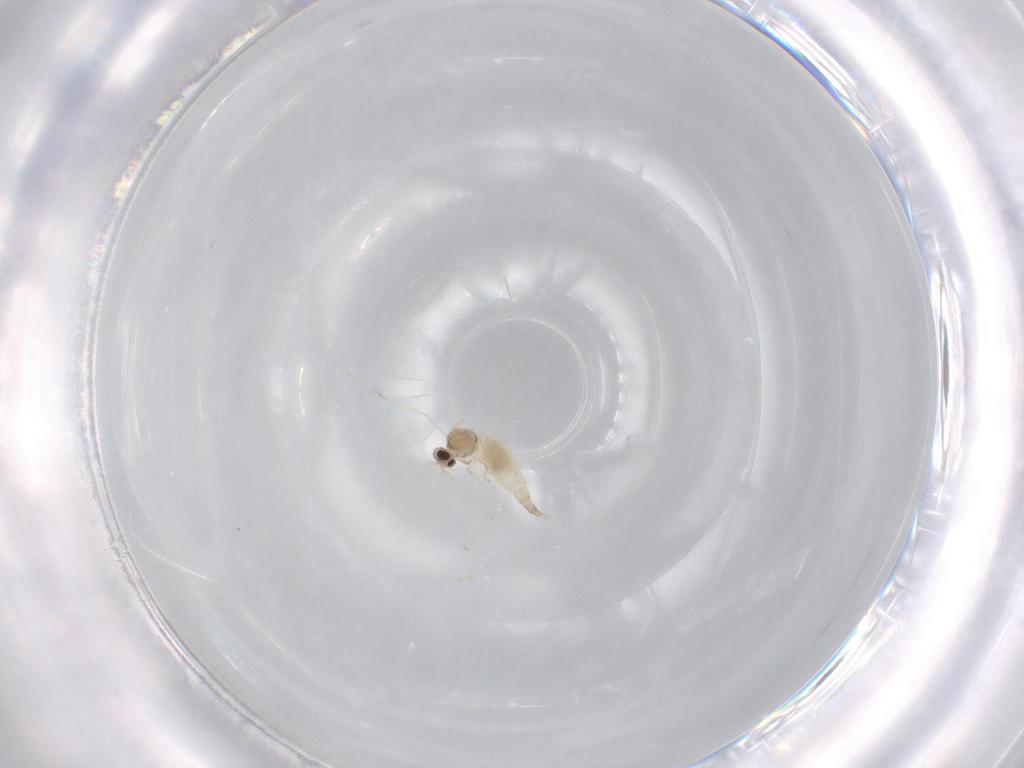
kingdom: Animalia
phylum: Arthropoda
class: Insecta
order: Diptera
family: Cecidomyiidae
